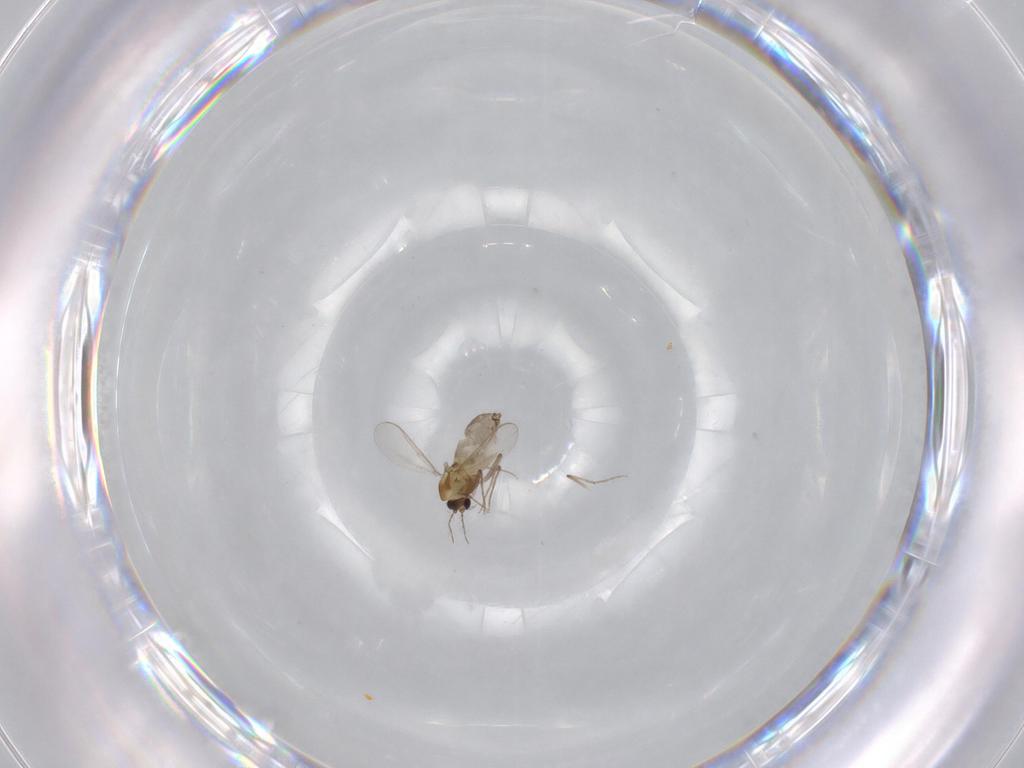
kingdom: Animalia
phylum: Arthropoda
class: Insecta
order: Diptera
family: Chironomidae
